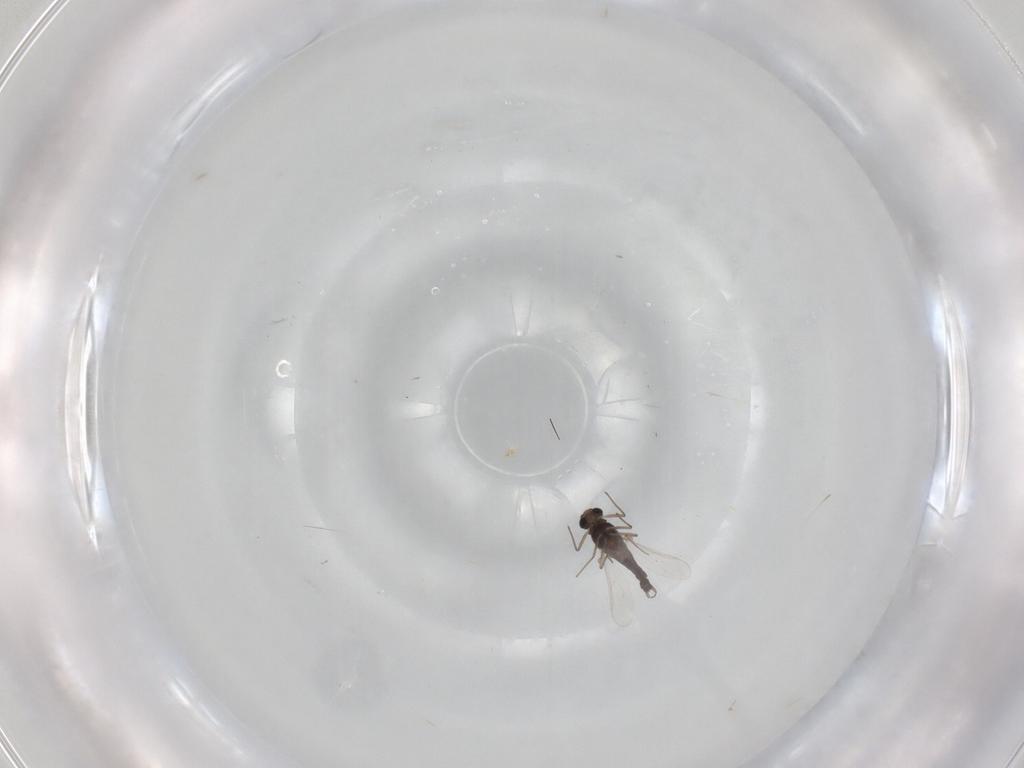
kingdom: Animalia
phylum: Arthropoda
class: Insecta
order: Diptera
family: Chironomidae
